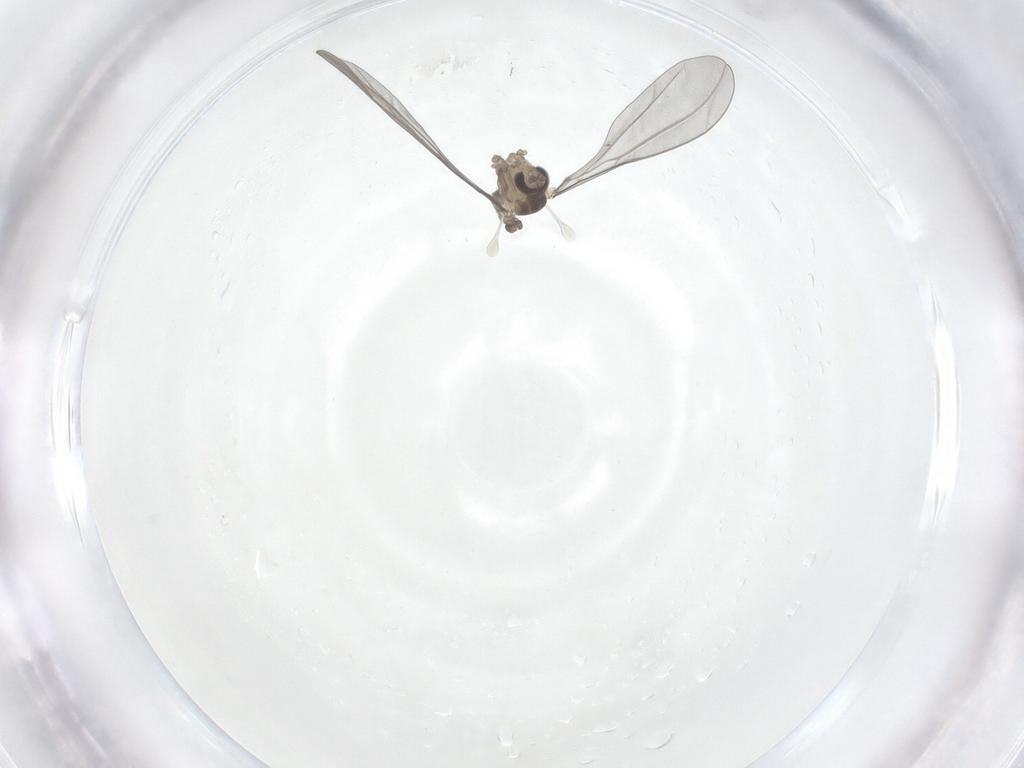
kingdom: Animalia
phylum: Arthropoda
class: Insecta
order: Diptera
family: Cecidomyiidae
